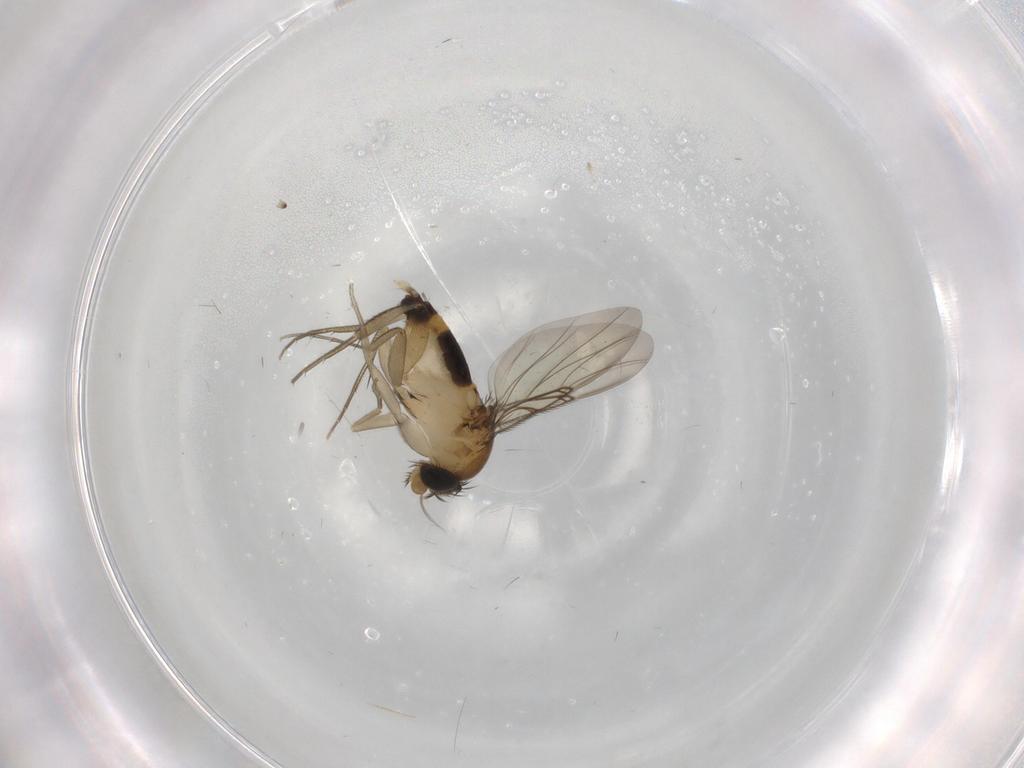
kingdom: Animalia
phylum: Arthropoda
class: Insecta
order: Diptera
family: Phoridae
